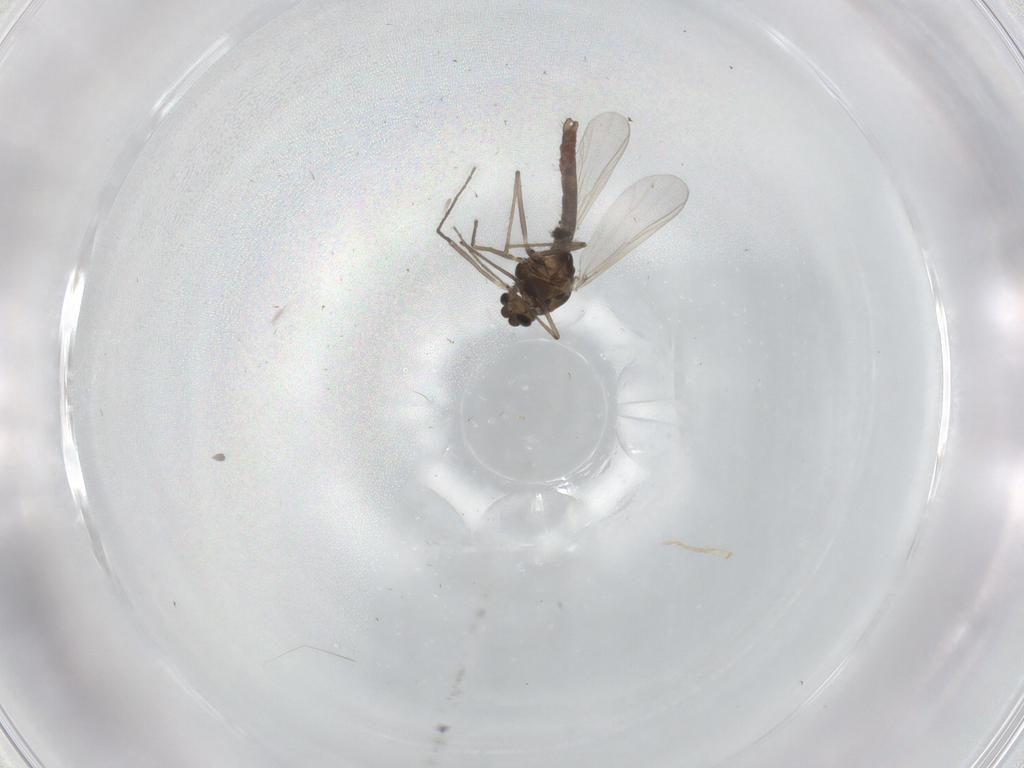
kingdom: Animalia
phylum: Arthropoda
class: Insecta
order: Diptera
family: Chironomidae
